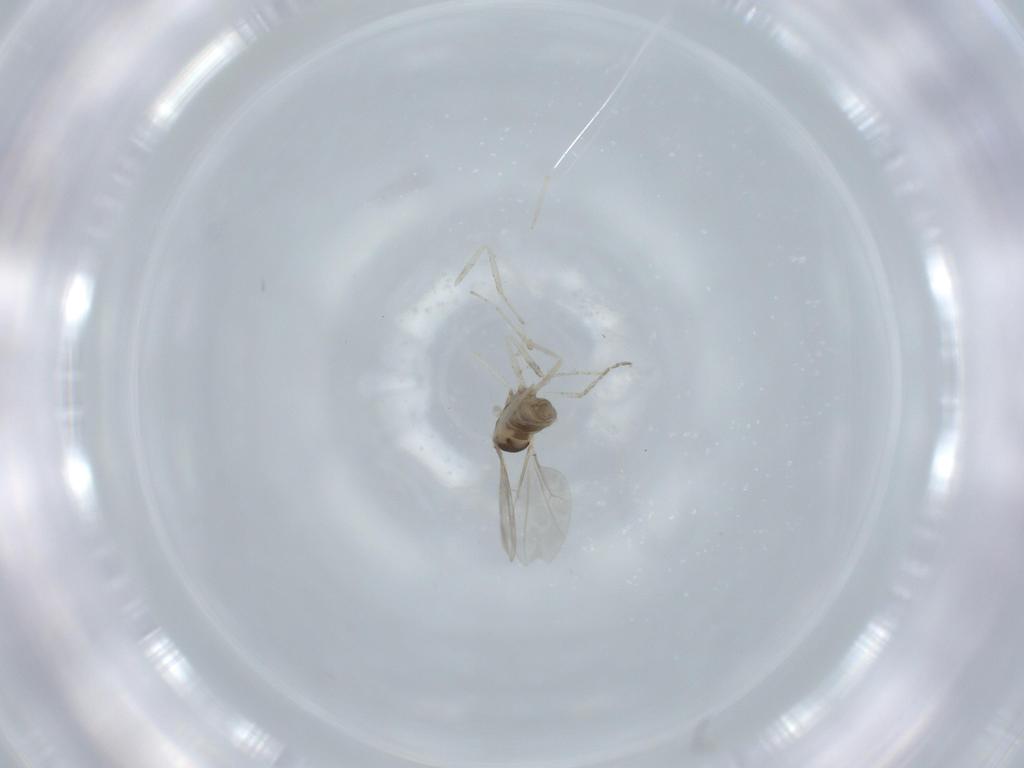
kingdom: Animalia
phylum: Arthropoda
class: Insecta
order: Diptera
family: Cecidomyiidae
